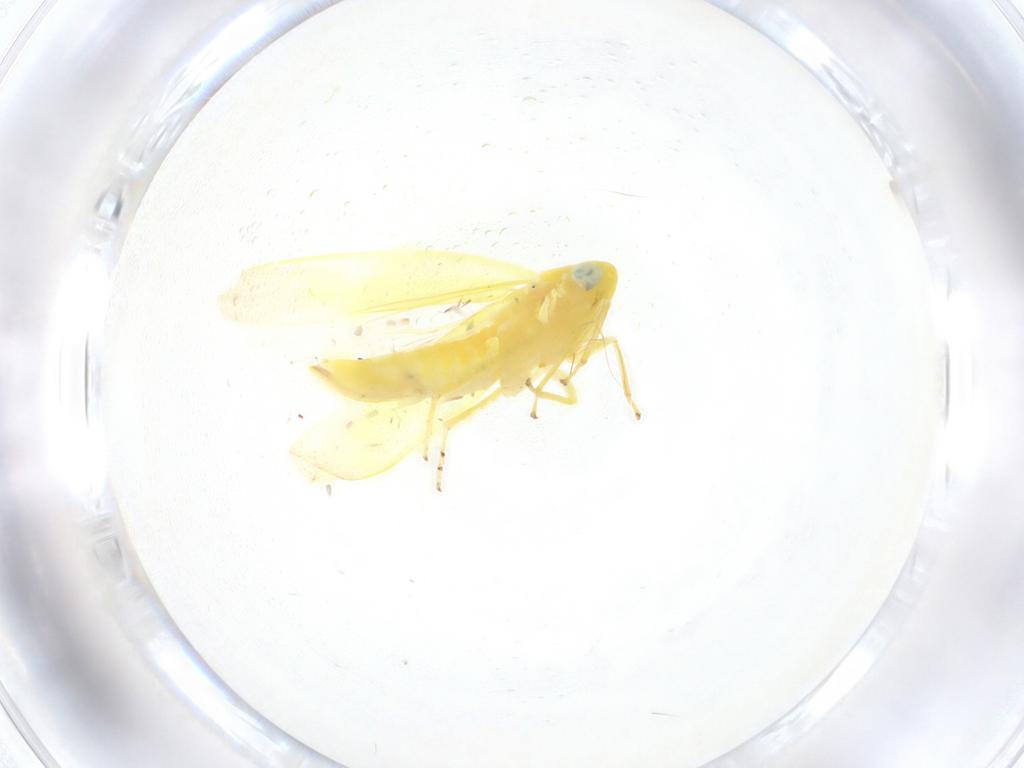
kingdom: Animalia
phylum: Arthropoda
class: Insecta
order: Hemiptera
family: Cicadellidae
